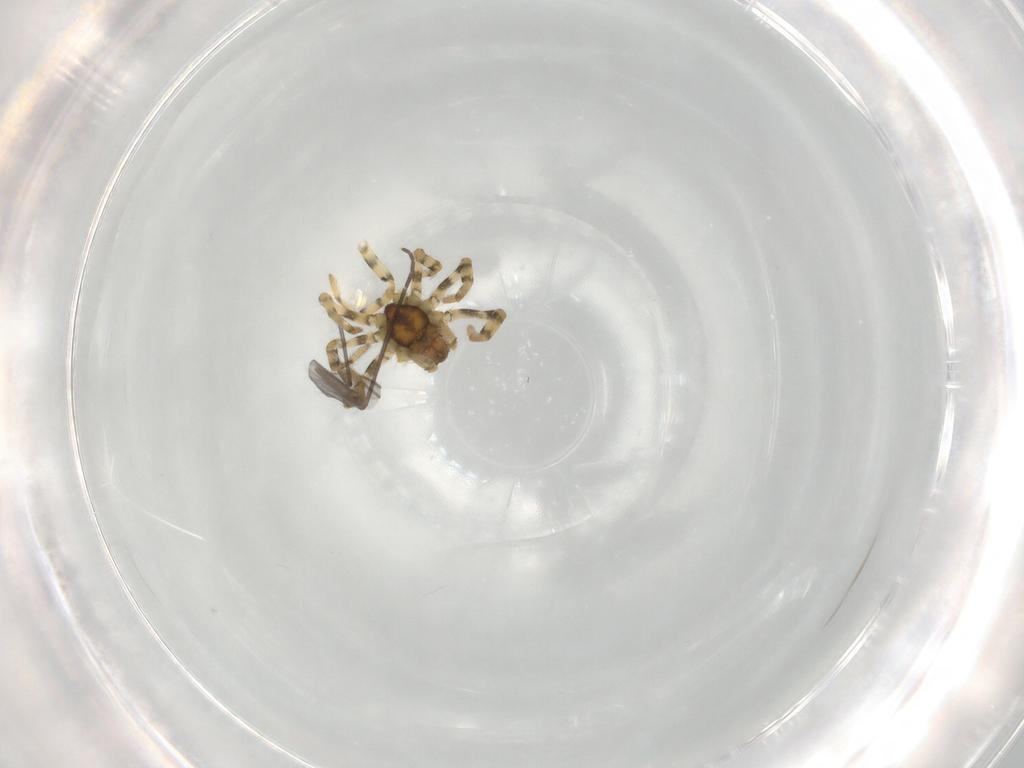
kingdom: Animalia
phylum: Arthropoda
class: Arachnida
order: Araneae
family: Dictynidae
